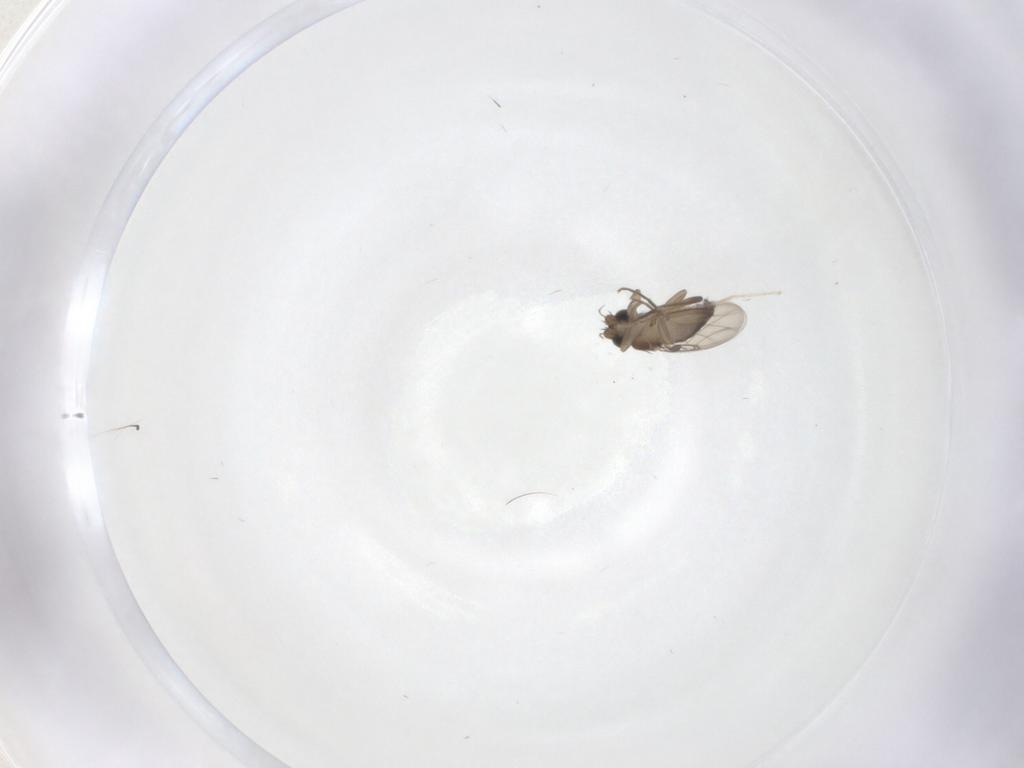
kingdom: Animalia
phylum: Arthropoda
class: Insecta
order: Diptera
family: Phoridae
